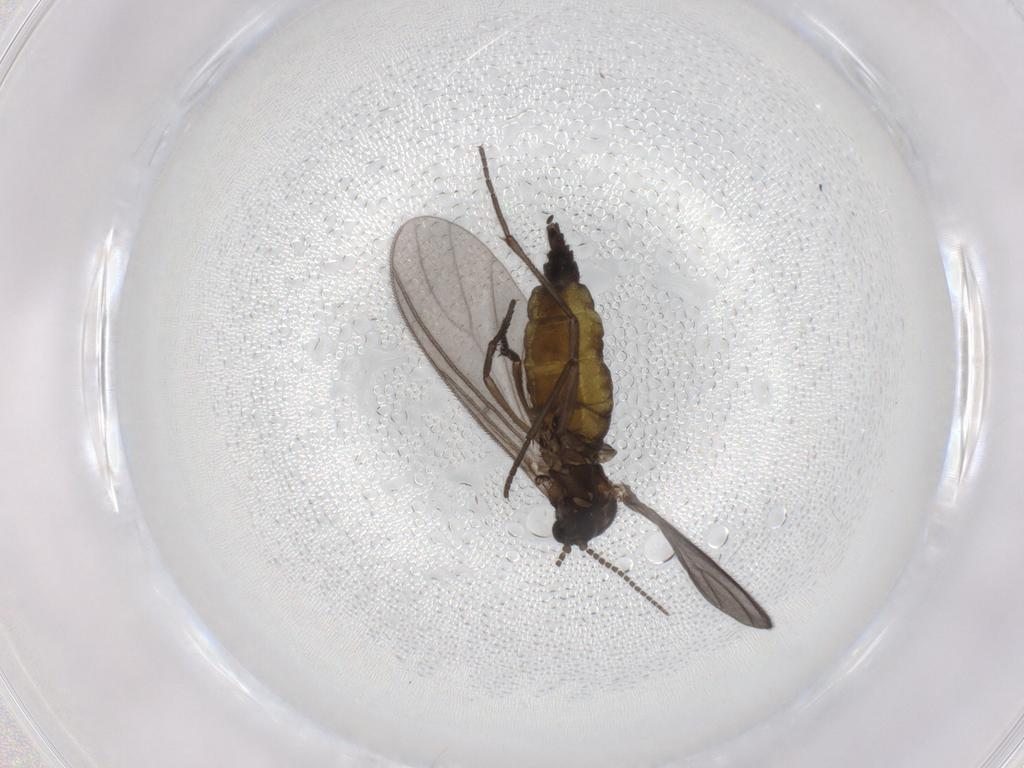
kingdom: Animalia
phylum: Arthropoda
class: Insecta
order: Diptera
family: Sciaridae
